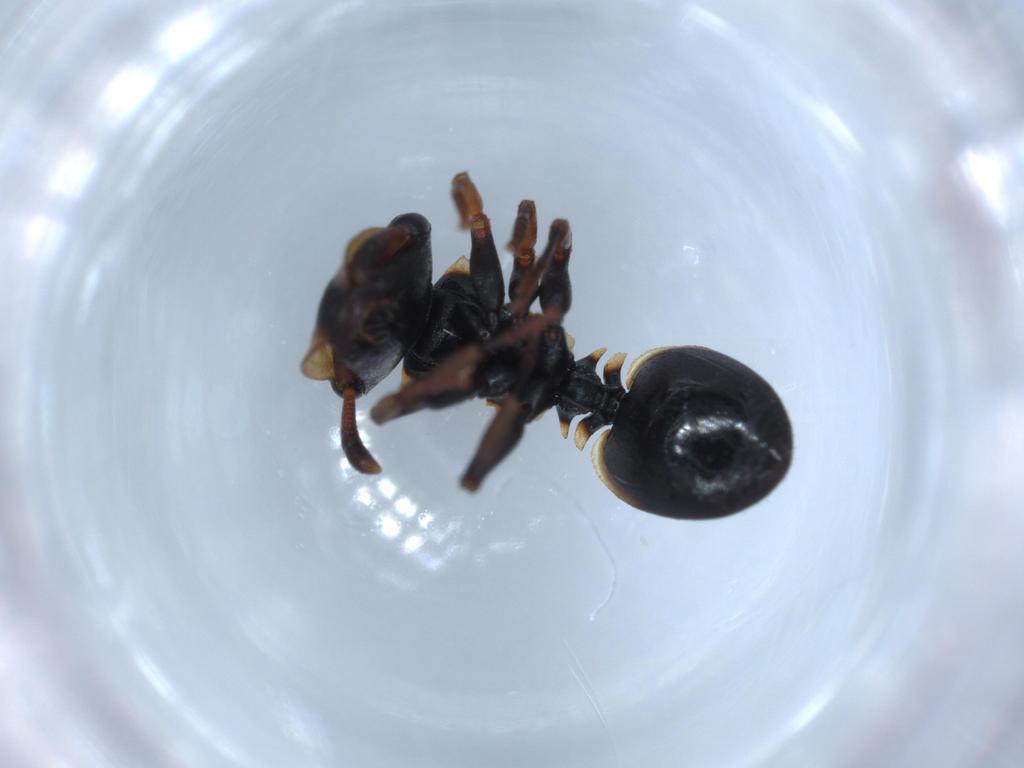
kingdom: Animalia
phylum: Arthropoda
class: Insecta
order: Hymenoptera
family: Formicidae
